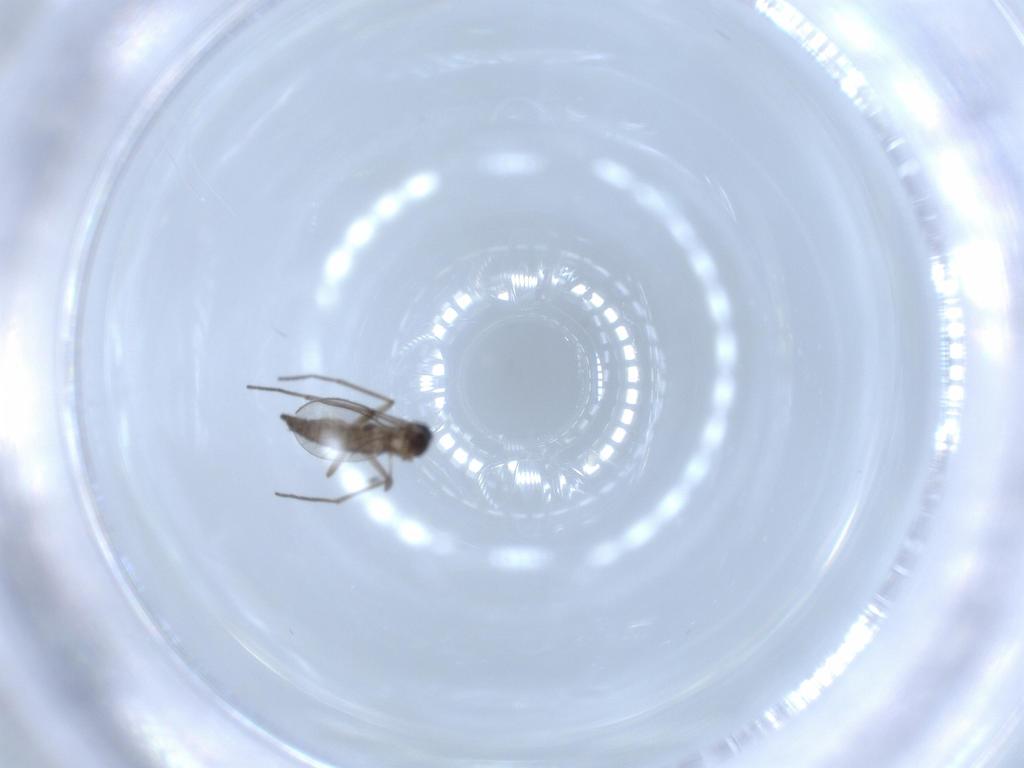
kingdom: Animalia
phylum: Arthropoda
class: Insecta
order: Diptera
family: Sciaridae
